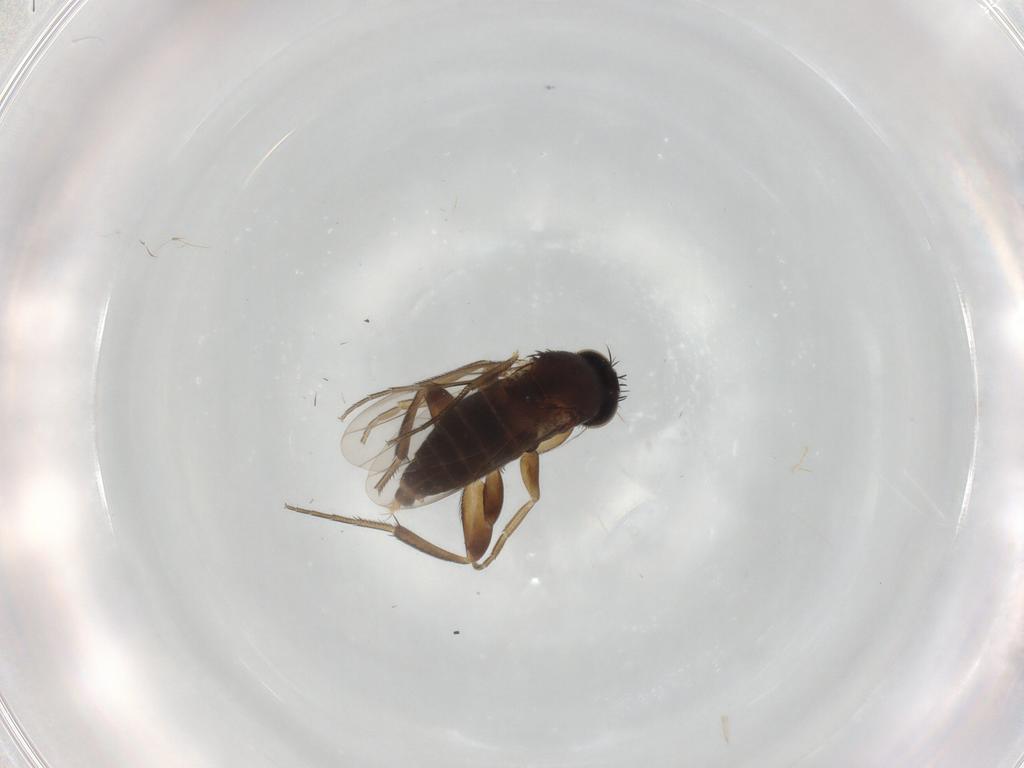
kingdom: Animalia
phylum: Arthropoda
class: Insecta
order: Diptera
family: Phoridae
